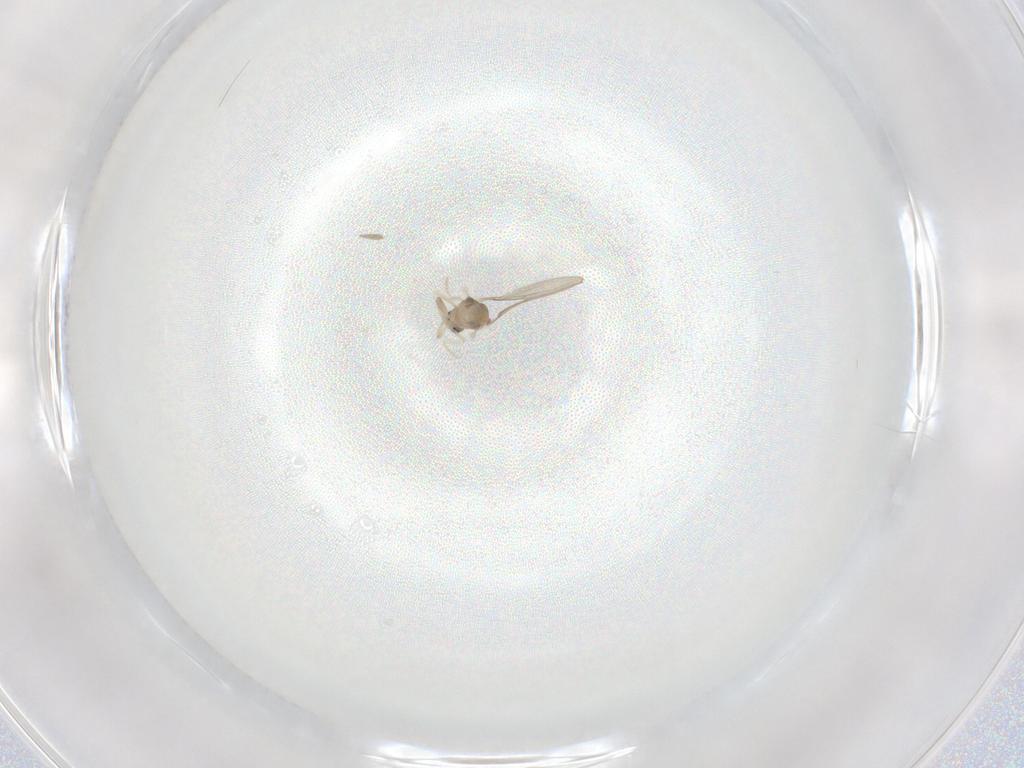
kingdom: Animalia
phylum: Arthropoda
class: Insecta
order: Diptera
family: Cecidomyiidae
